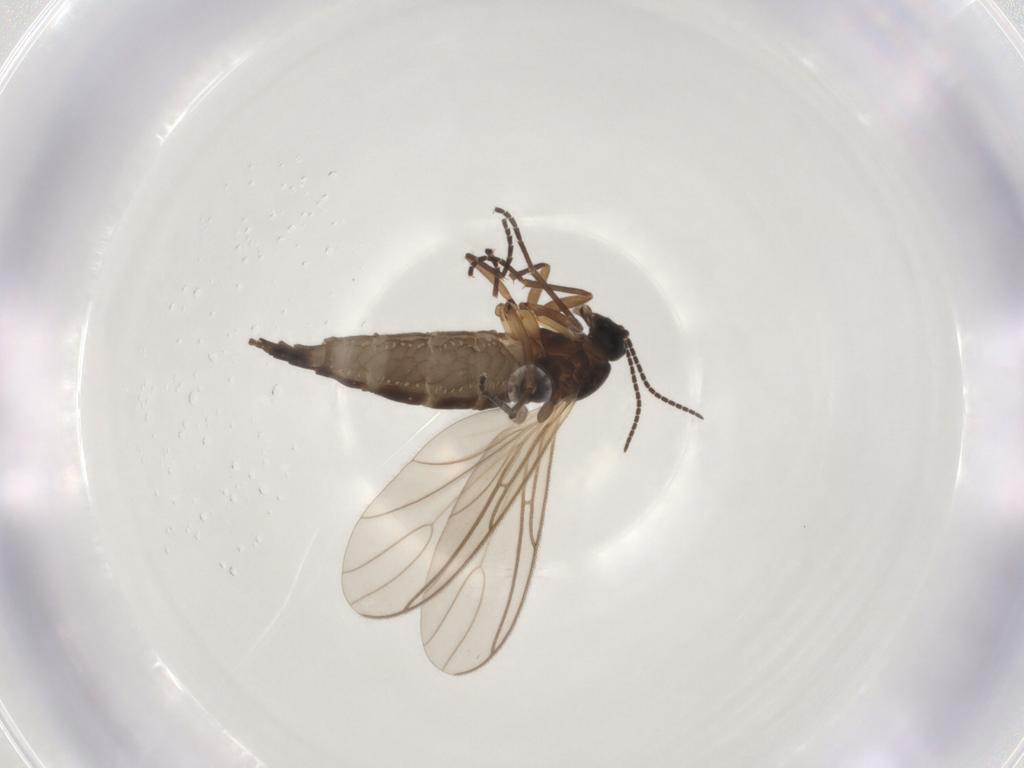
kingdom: Animalia
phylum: Arthropoda
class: Insecta
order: Diptera
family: Sciaridae
